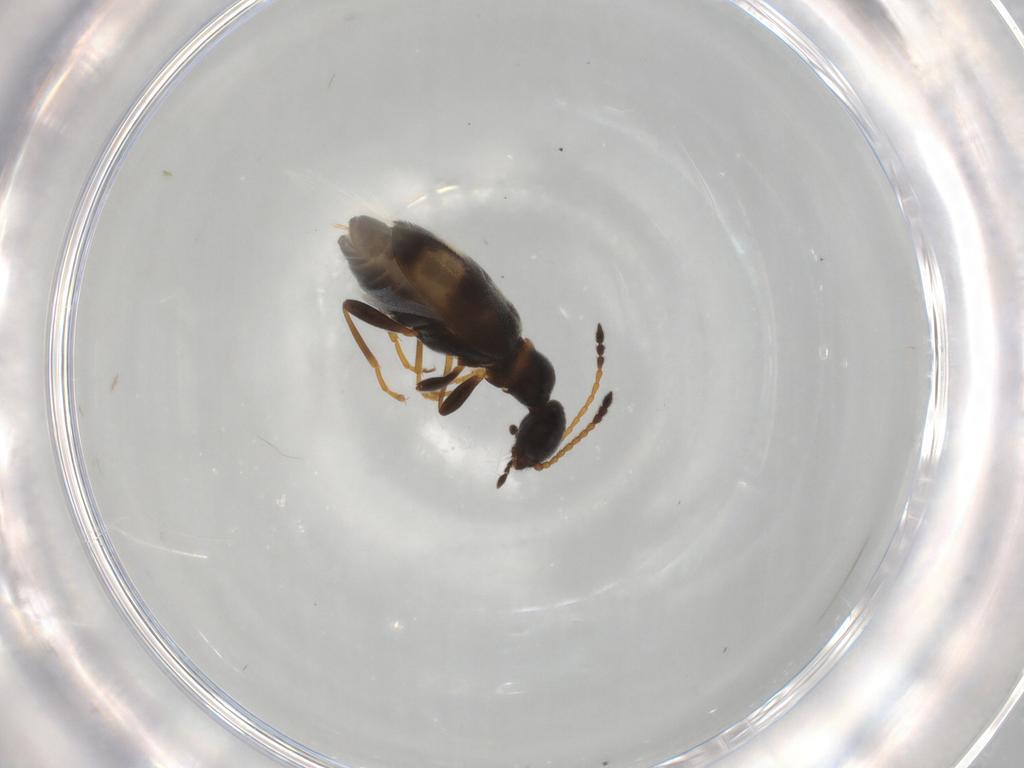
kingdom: Animalia
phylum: Arthropoda
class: Insecta
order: Coleoptera
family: Anthicidae
